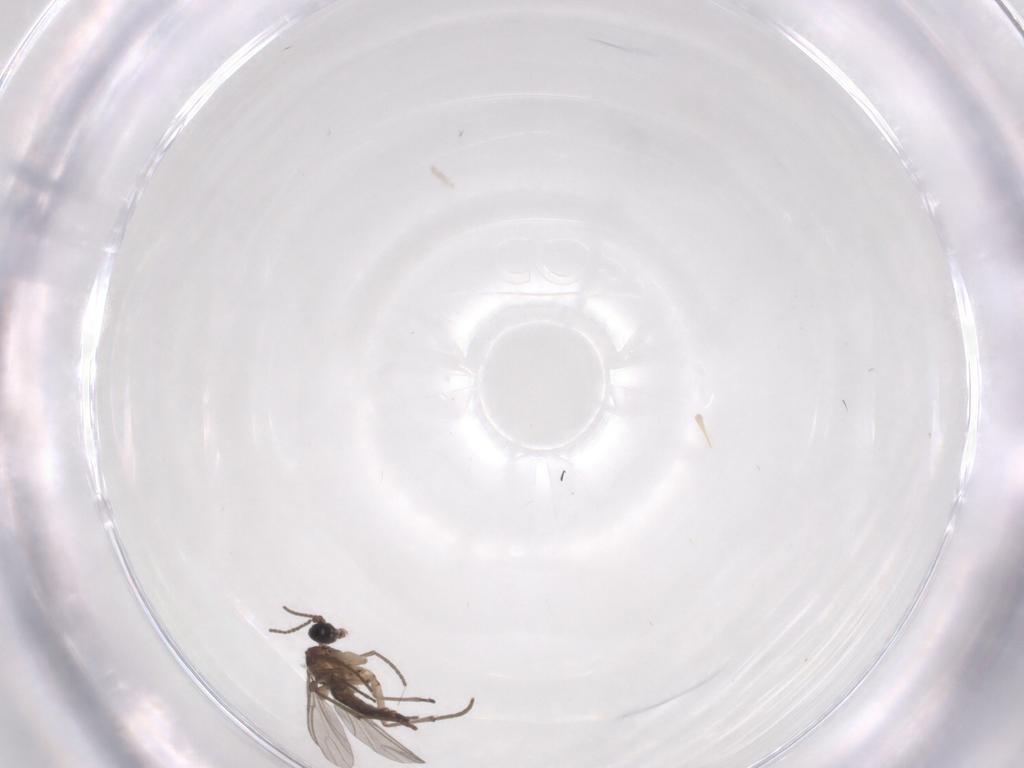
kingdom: Animalia
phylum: Arthropoda
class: Insecta
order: Diptera
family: Sciaridae
